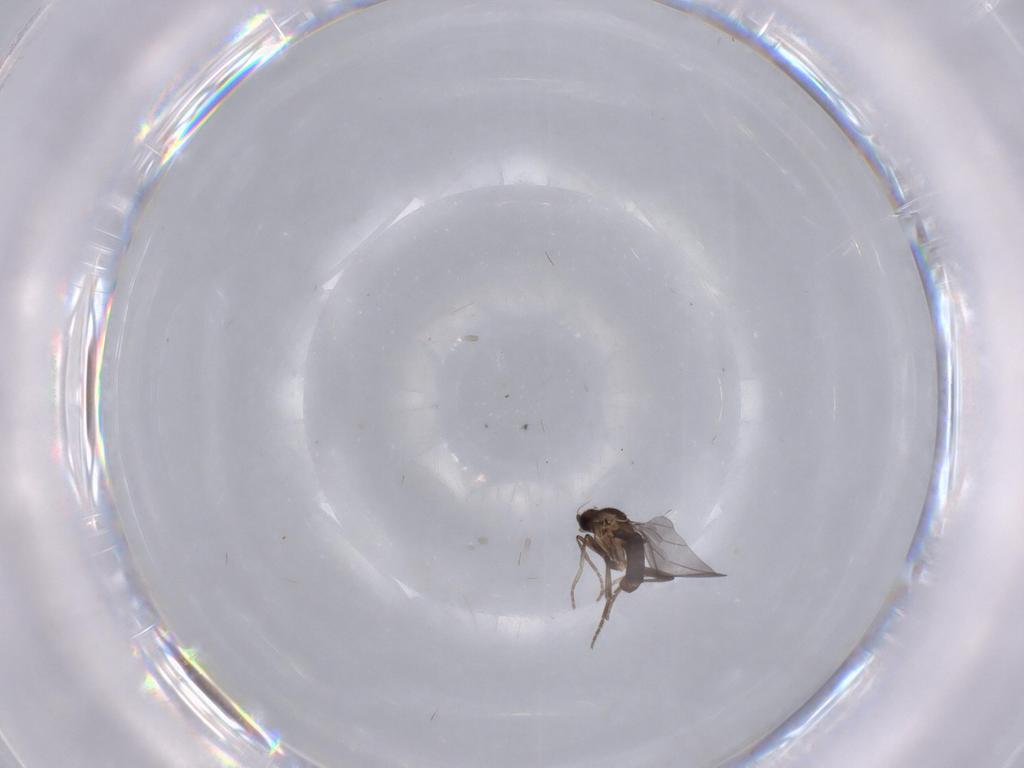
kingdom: Animalia
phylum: Arthropoda
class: Insecta
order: Diptera
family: Phoridae
